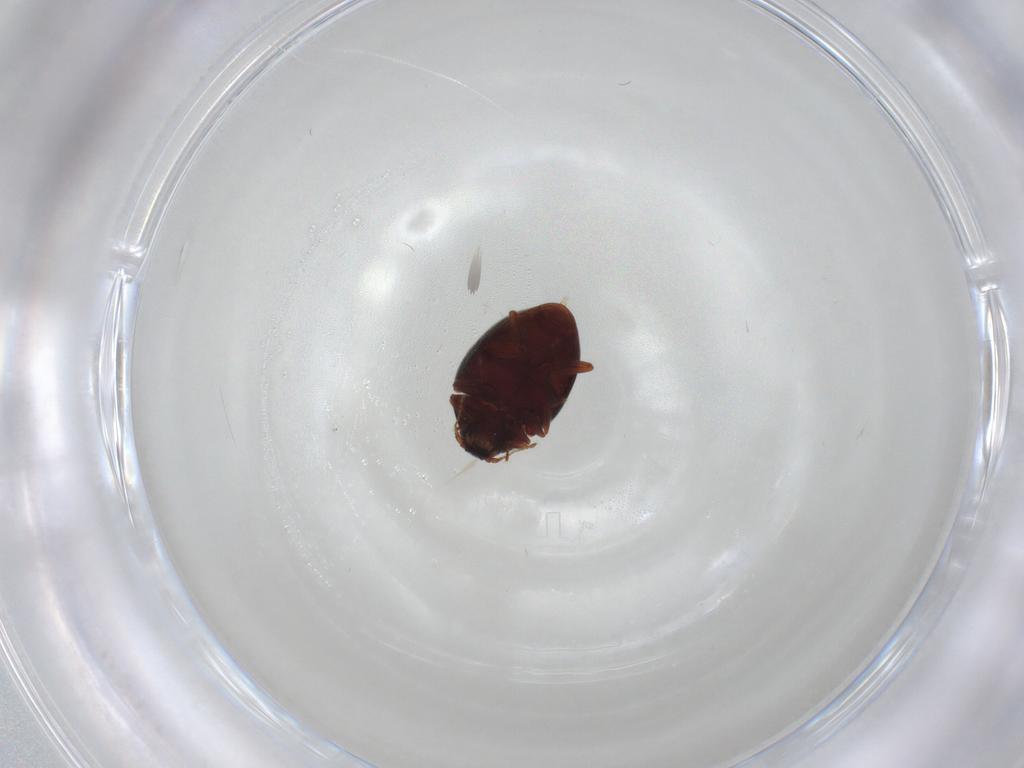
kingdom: Animalia
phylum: Arthropoda
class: Insecta
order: Coleoptera
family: Limnichidae
